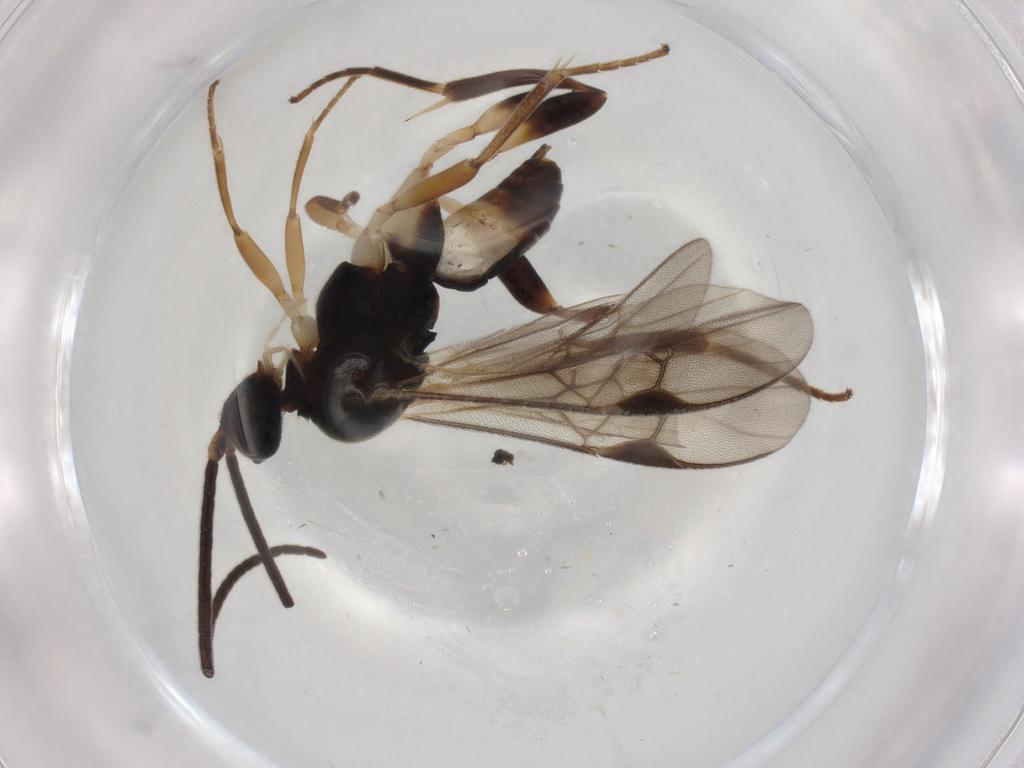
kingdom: Animalia
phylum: Arthropoda
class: Insecta
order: Hymenoptera
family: Braconidae
